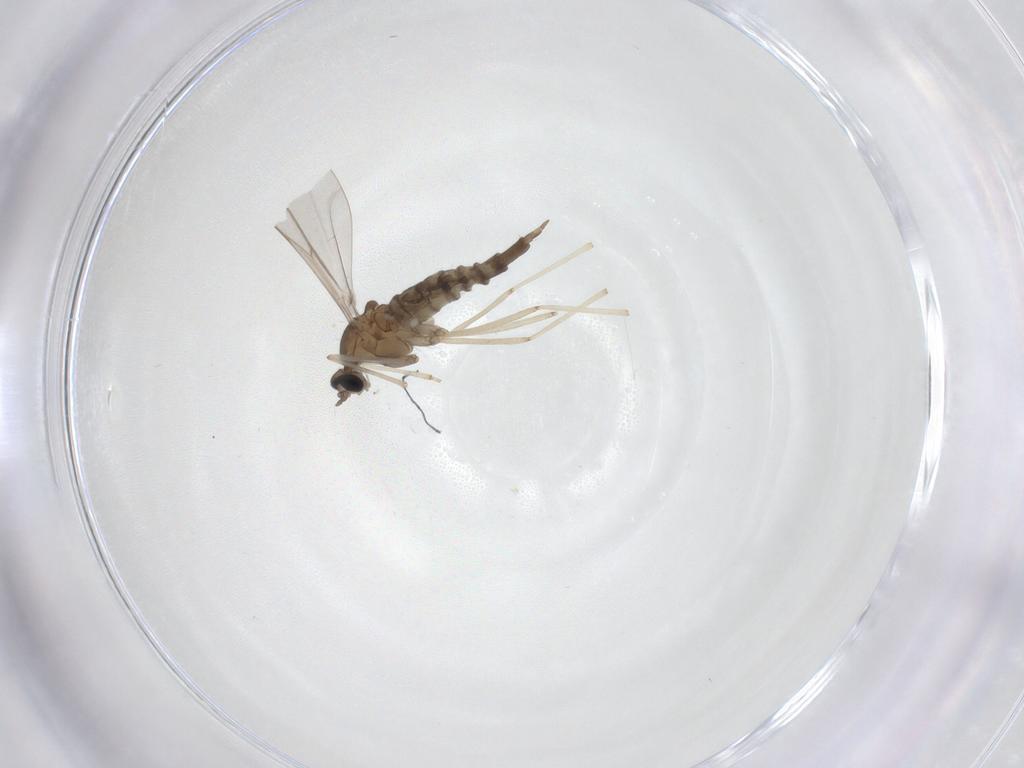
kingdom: Animalia
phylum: Arthropoda
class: Insecta
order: Diptera
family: Cecidomyiidae
